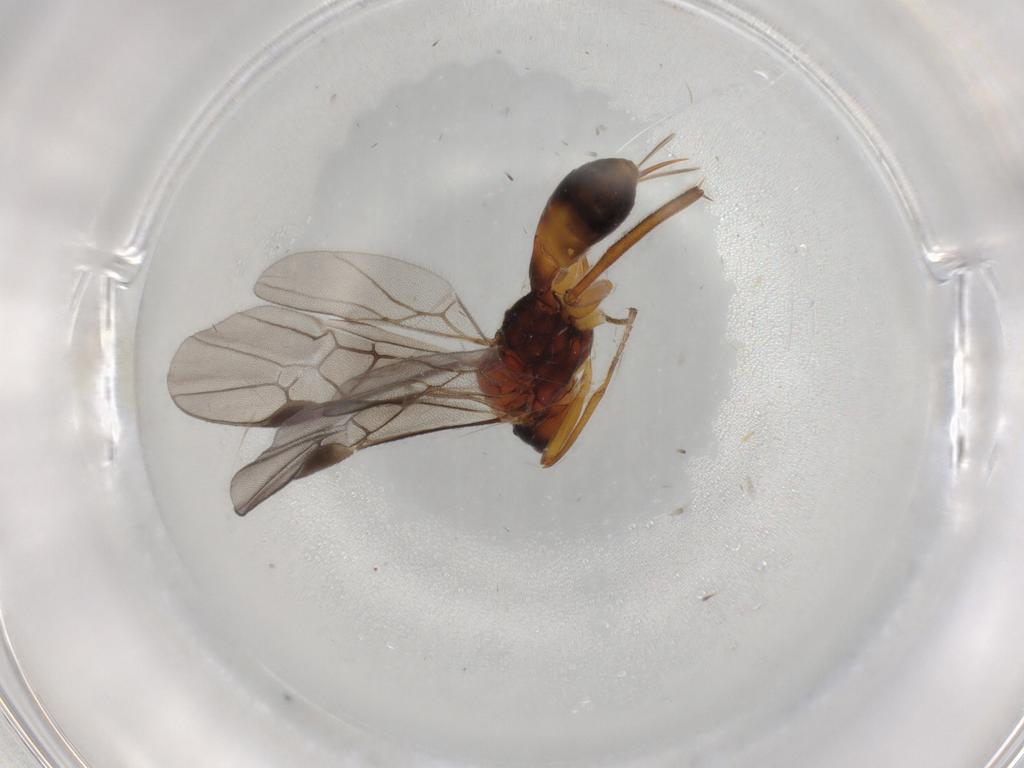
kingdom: Animalia
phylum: Arthropoda
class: Insecta
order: Hymenoptera
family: Braconidae
